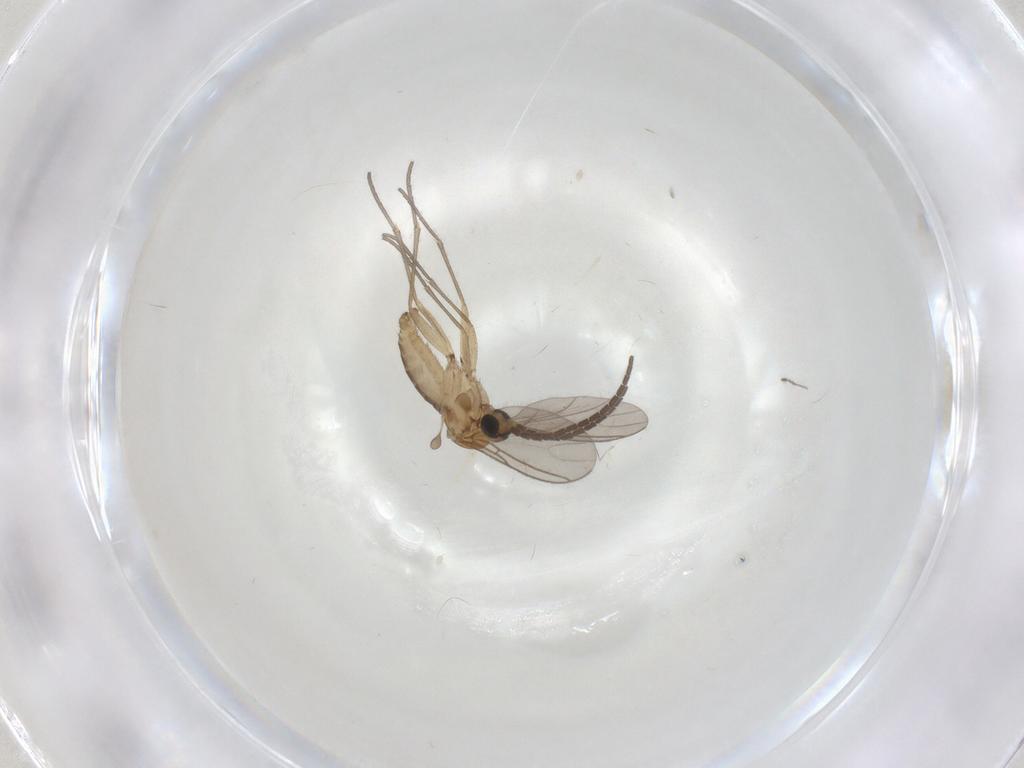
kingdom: Animalia
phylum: Arthropoda
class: Insecta
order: Diptera
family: Sciaridae
